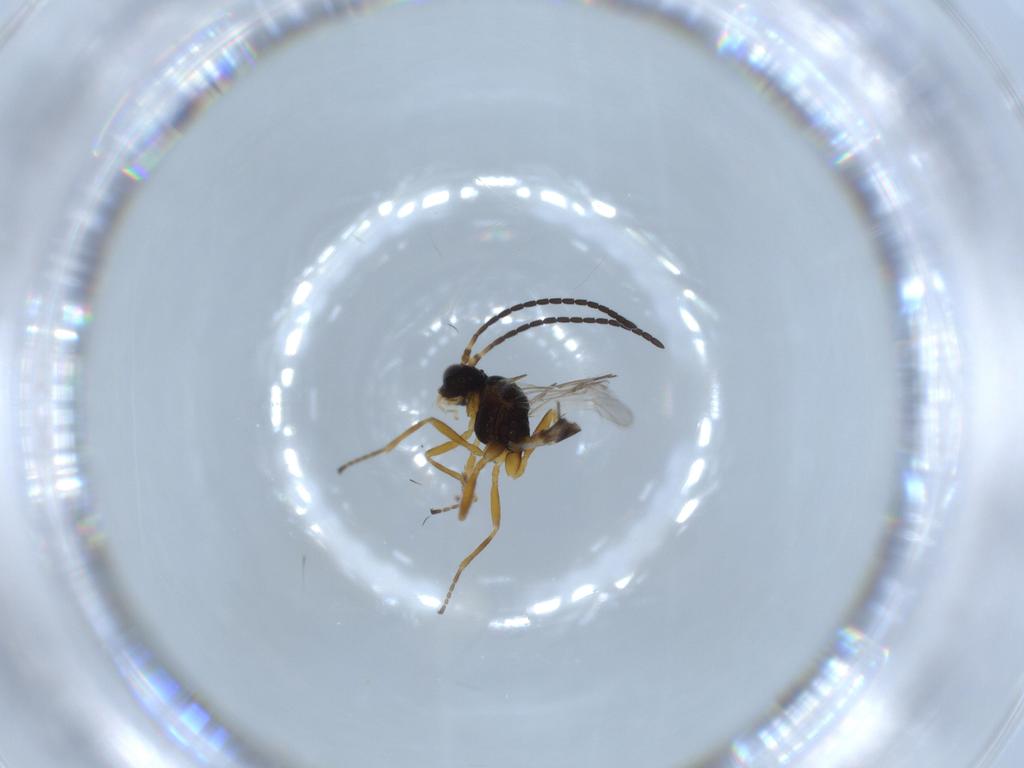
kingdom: Animalia
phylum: Arthropoda
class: Insecta
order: Hymenoptera
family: Braconidae
